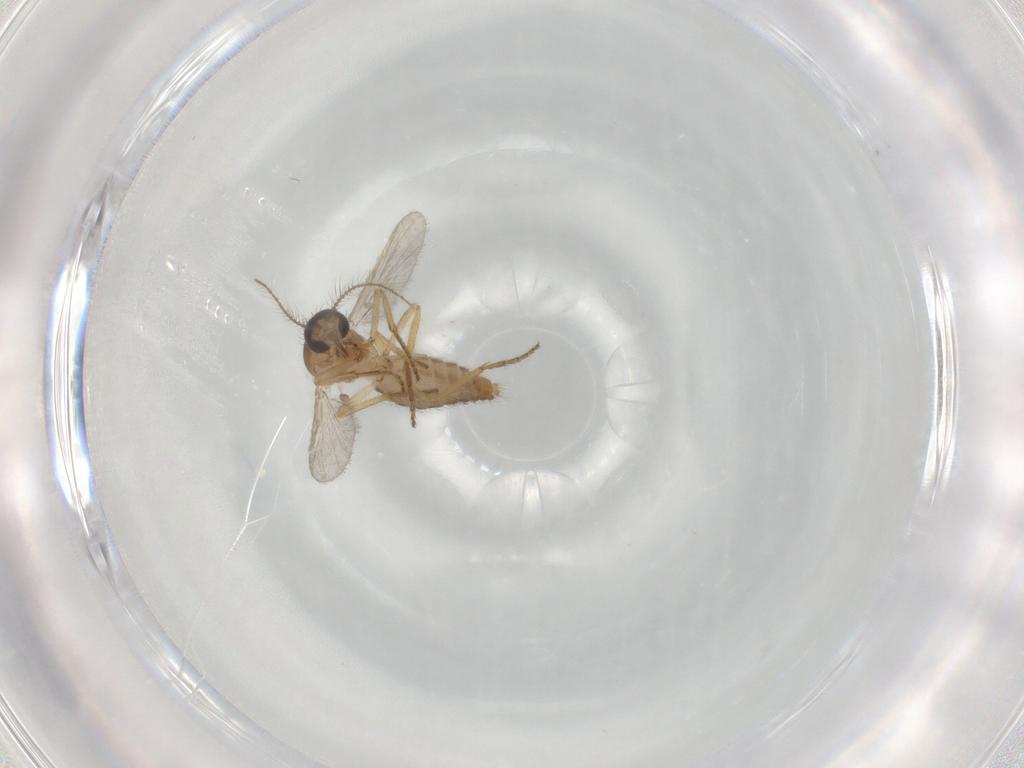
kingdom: Animalia
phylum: Arthropoda
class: Insecta
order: Diptera
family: Ceratopogonidae
